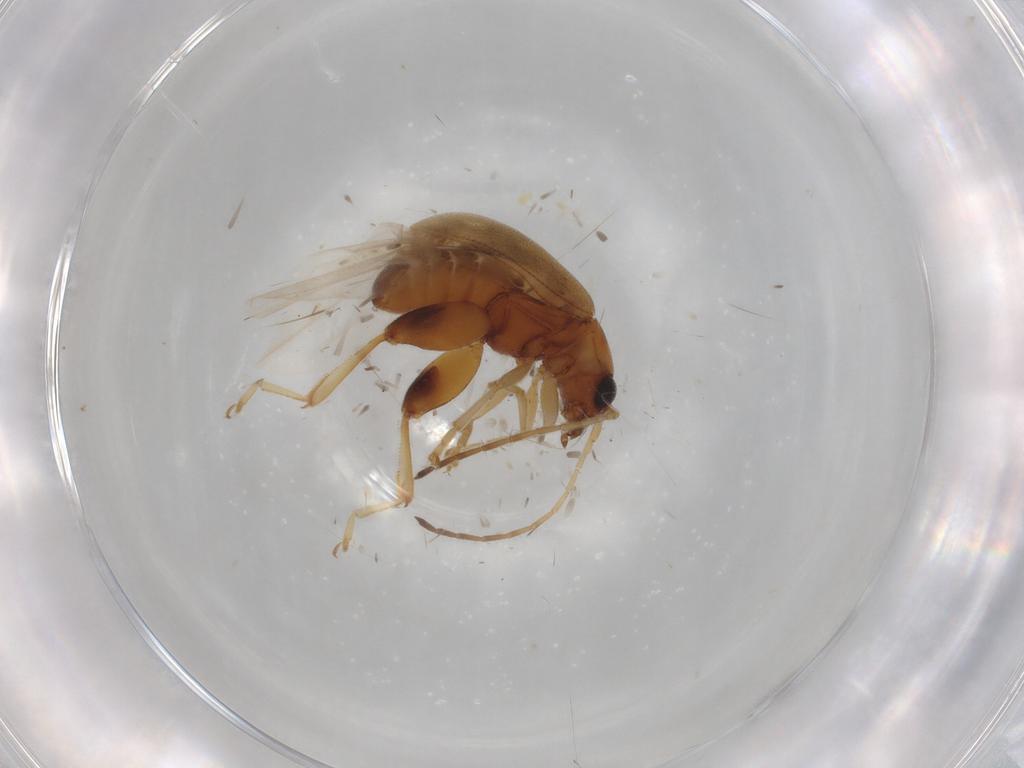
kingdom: Animalia
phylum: Arthropoda
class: Insecta
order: Coleoptera
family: Chrysomelidae
